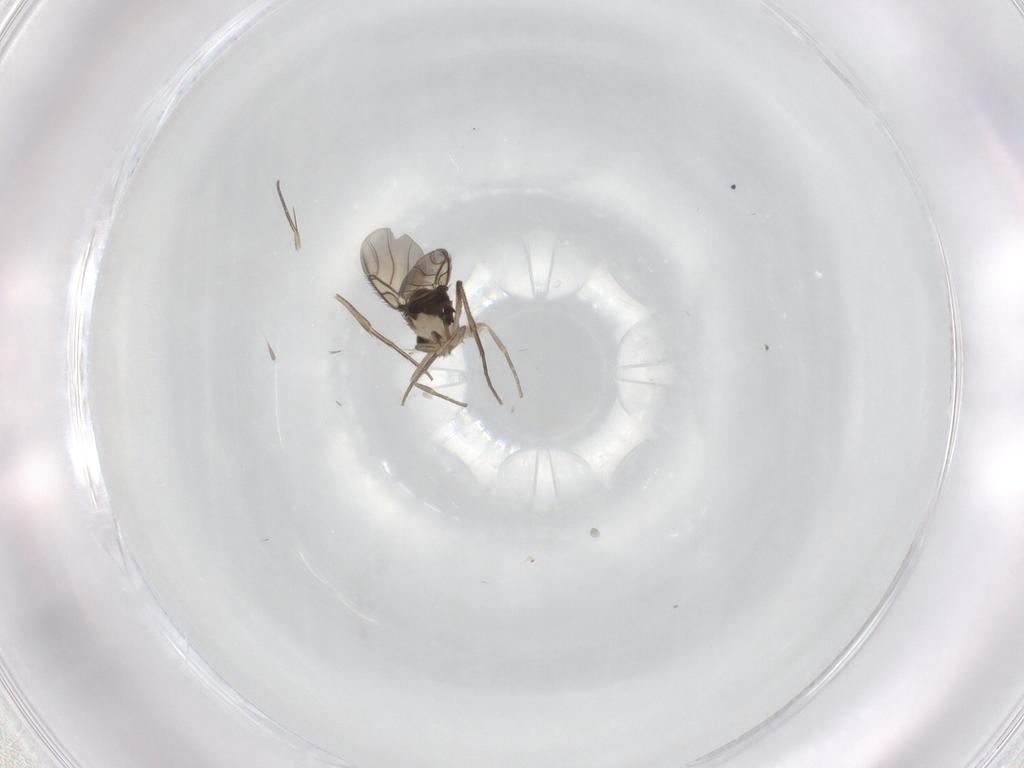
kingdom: Animalia
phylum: Arthropoda
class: Insecta
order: Diptera
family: Phoridae
